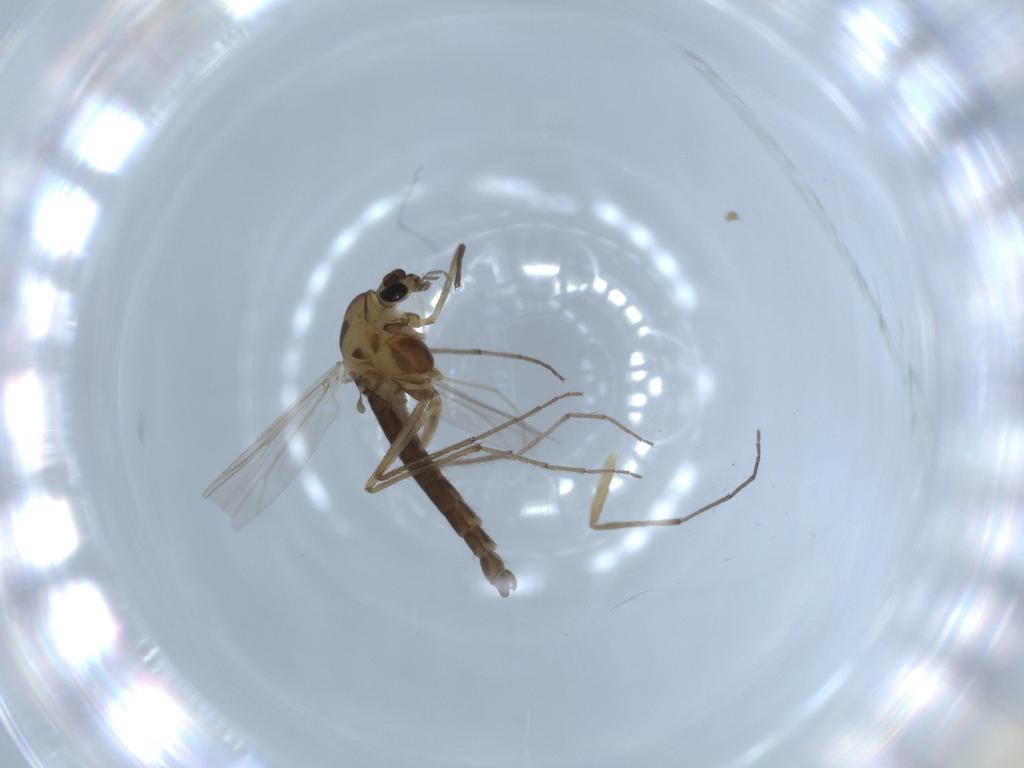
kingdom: Animalia
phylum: Arthropoda
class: Insecta
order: Diptera
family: Chironomidae
